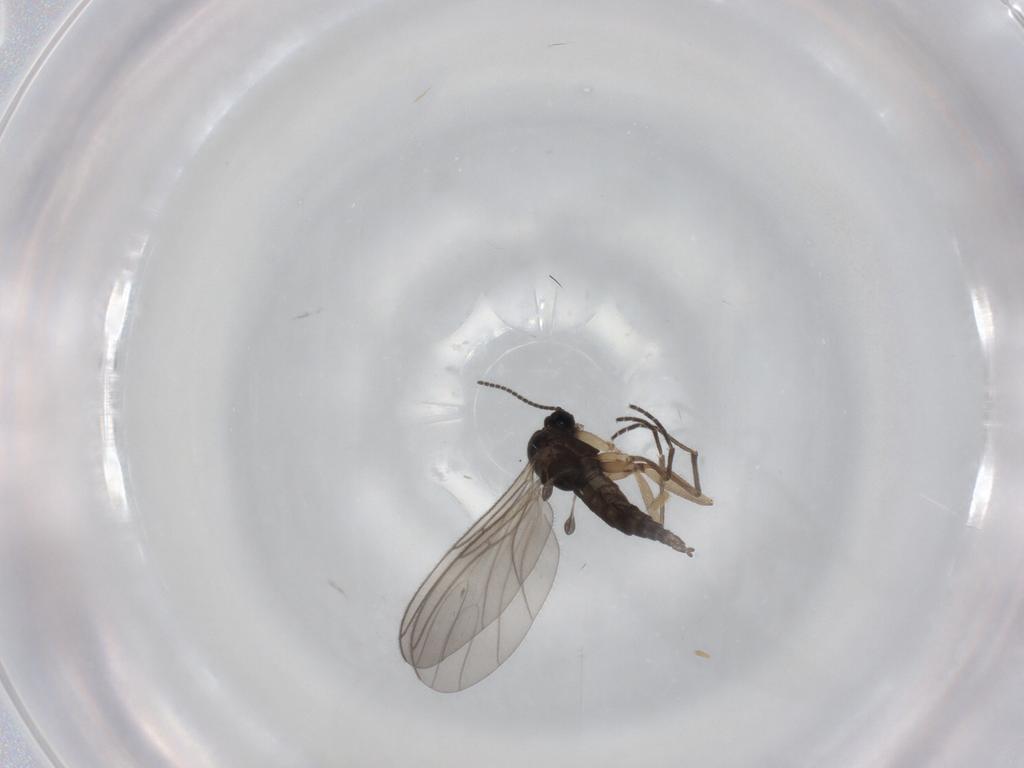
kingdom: Animalia
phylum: Arthropoda
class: Insecta
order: Diptera
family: Sciaridae
